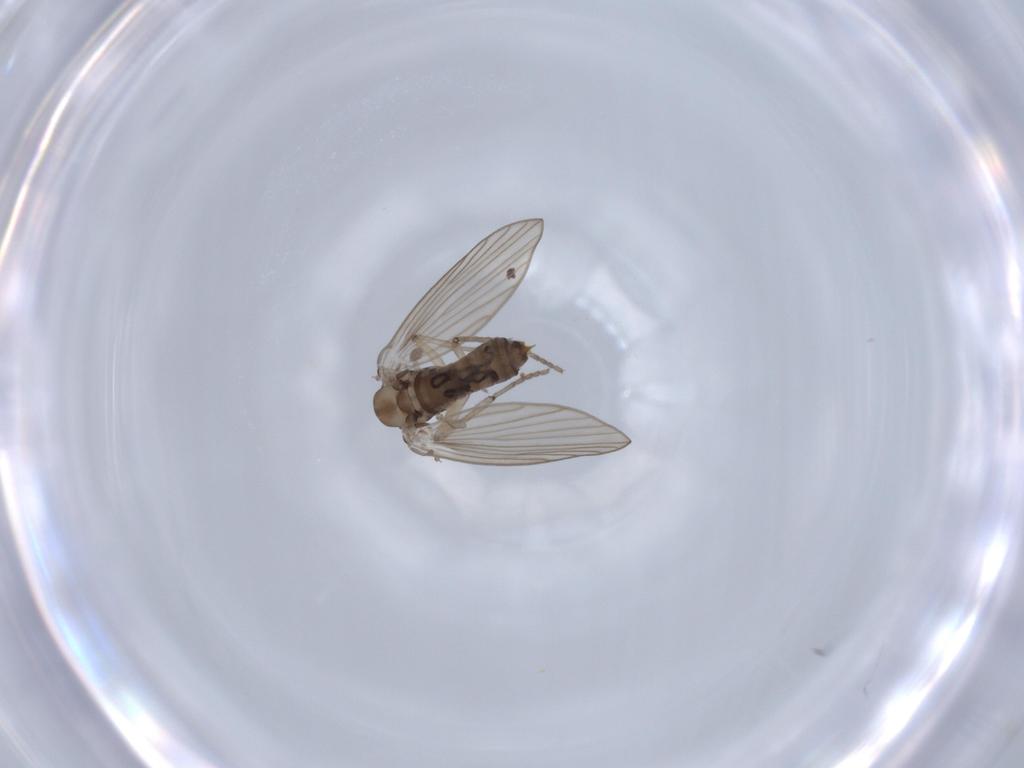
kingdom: Animalia
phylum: Arthropoda
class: Insecta
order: Diptera
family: Psychodidae
